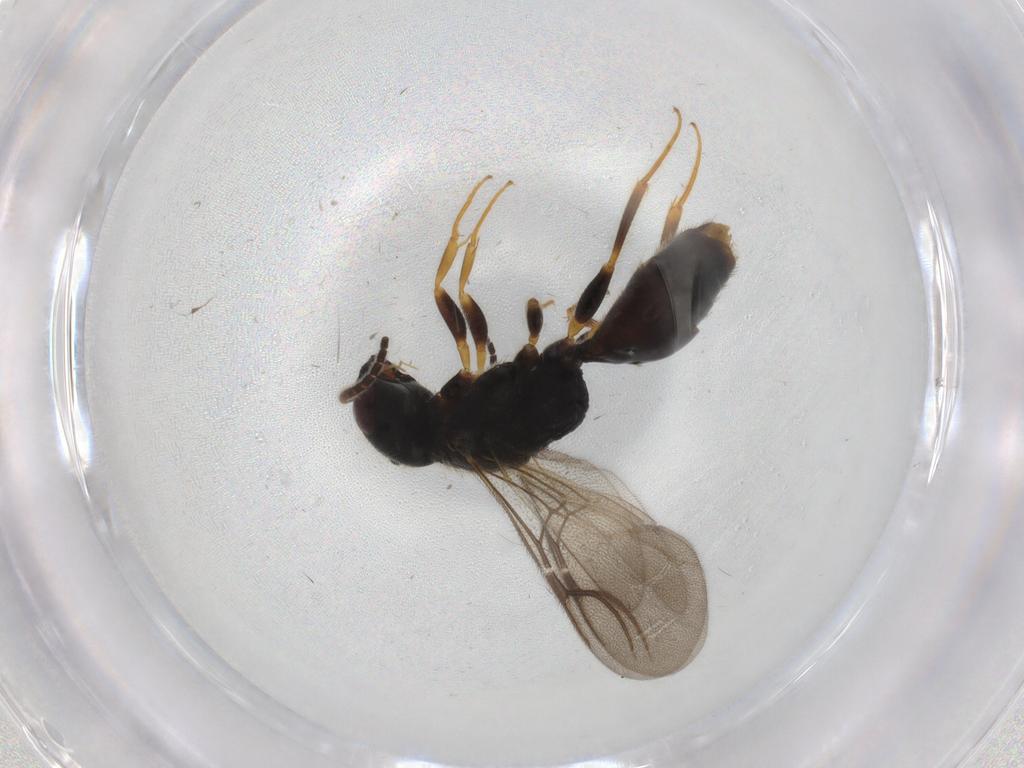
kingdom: Animalia
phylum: Arthropoda
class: Insecta
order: Hymenoptera
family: Bethylidae
